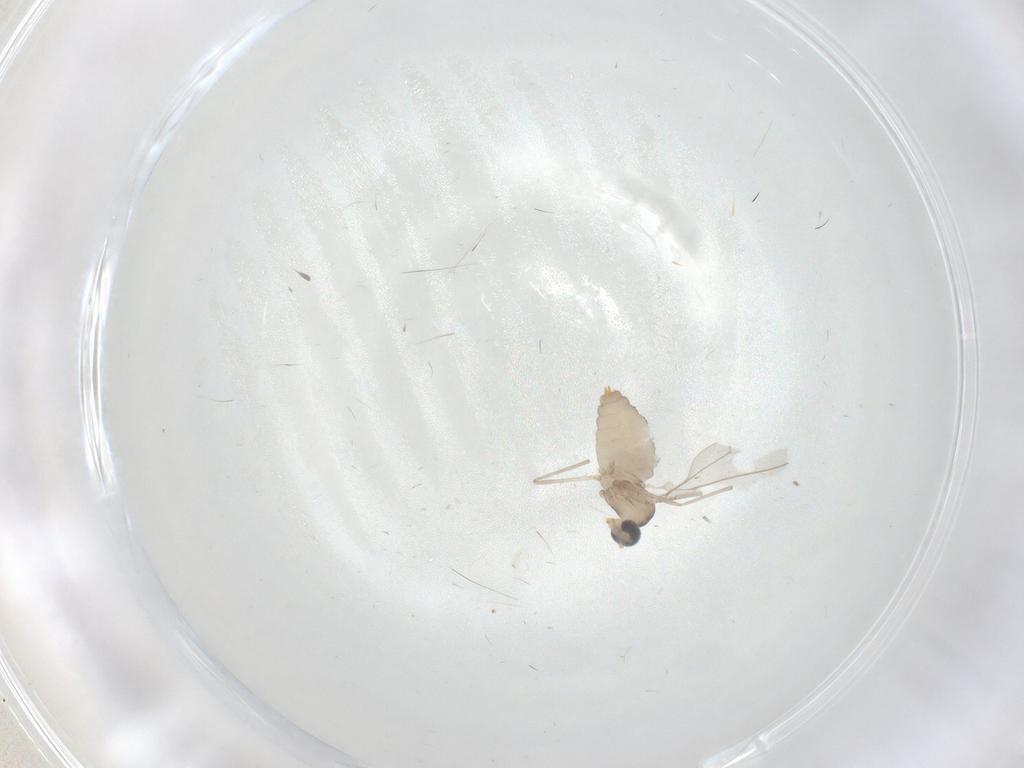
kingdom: Animalia
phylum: Arthropoda
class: Insecta
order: Diptera
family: Cecidomyiidae
